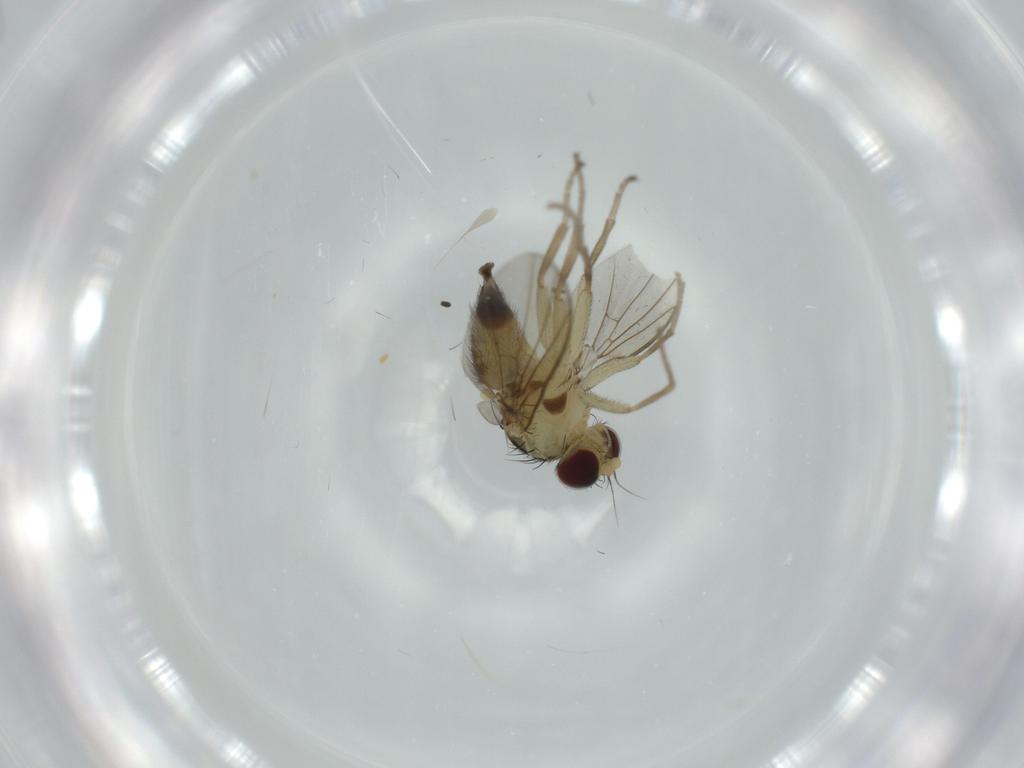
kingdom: Animalia
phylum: Arthropoda
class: Insecta
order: Diptera
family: Agromyzidae
